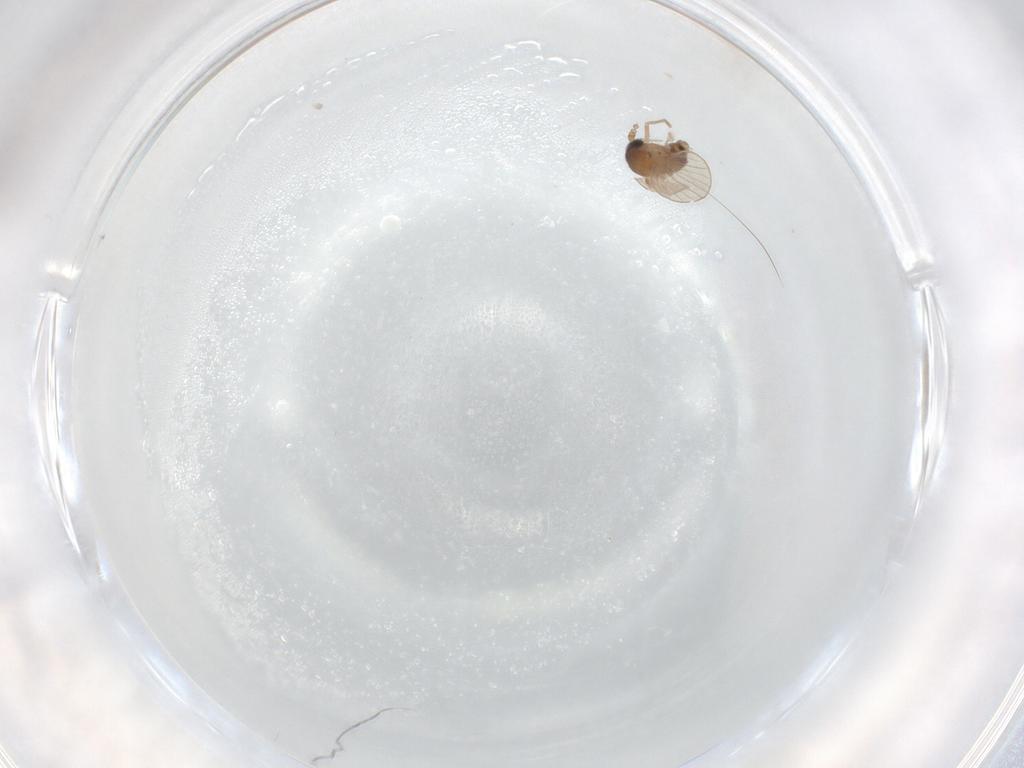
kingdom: Animalia
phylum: Arthropoda
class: Insecta
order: Diptera
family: Psychodidae
